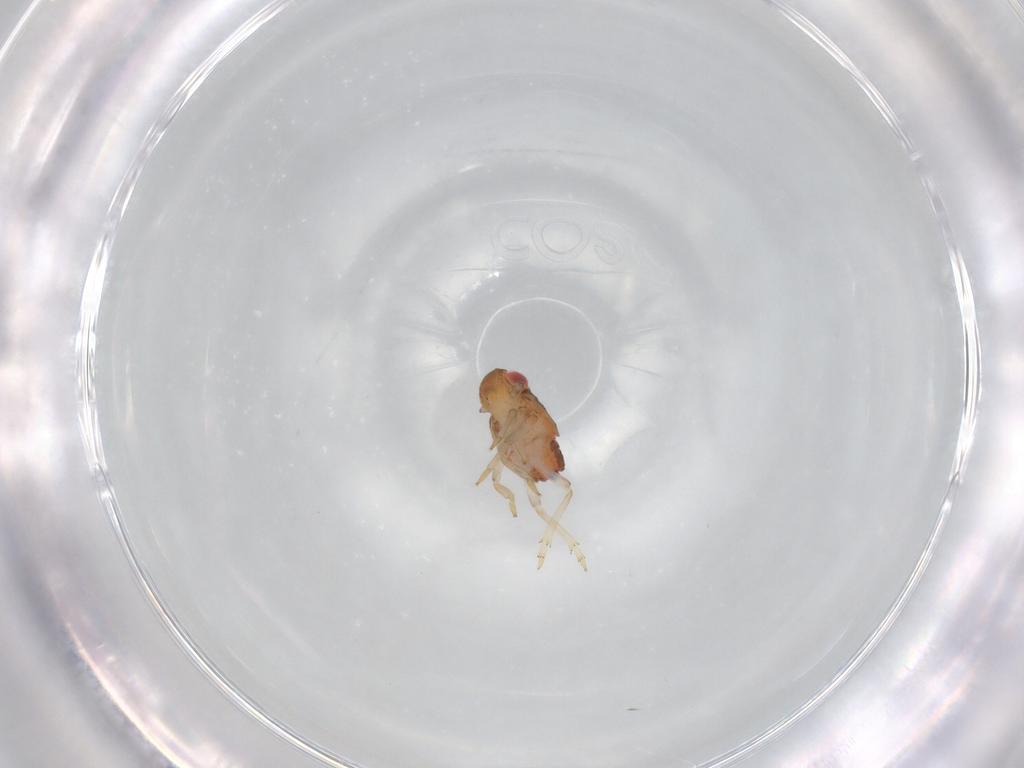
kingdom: Animalia
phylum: Arthropoda
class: Insecta
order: Hemiptera
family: Issidae
